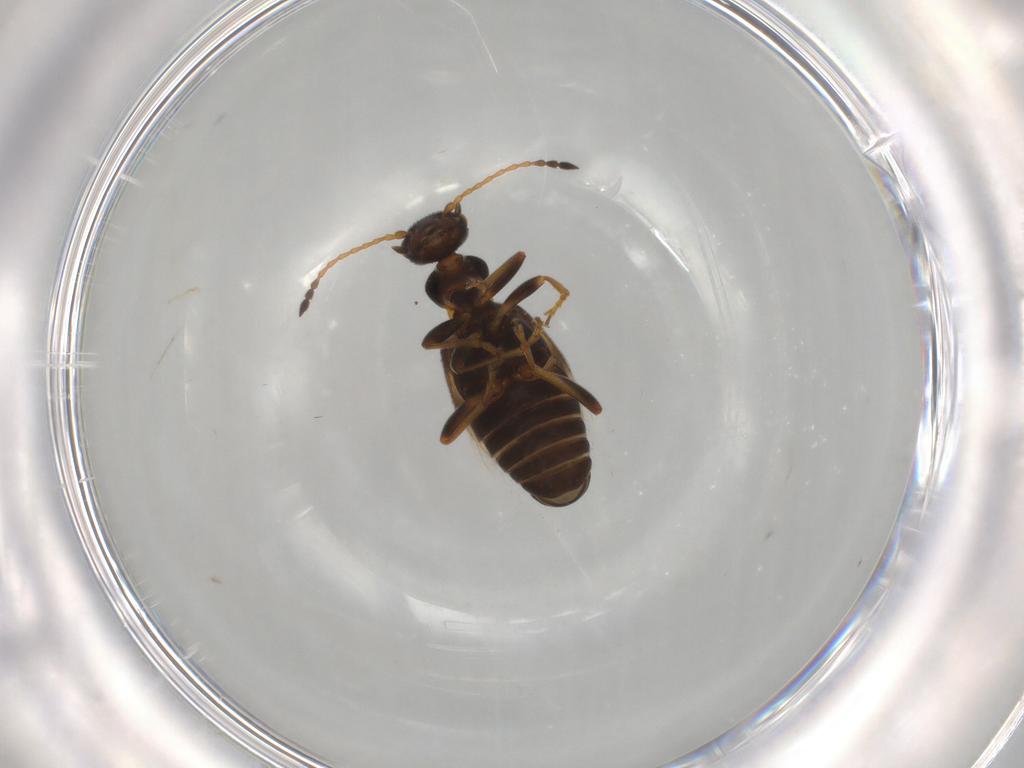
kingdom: Animalia
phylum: Arthropoda
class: Insecta
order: Coleoptera
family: Anthicidae
